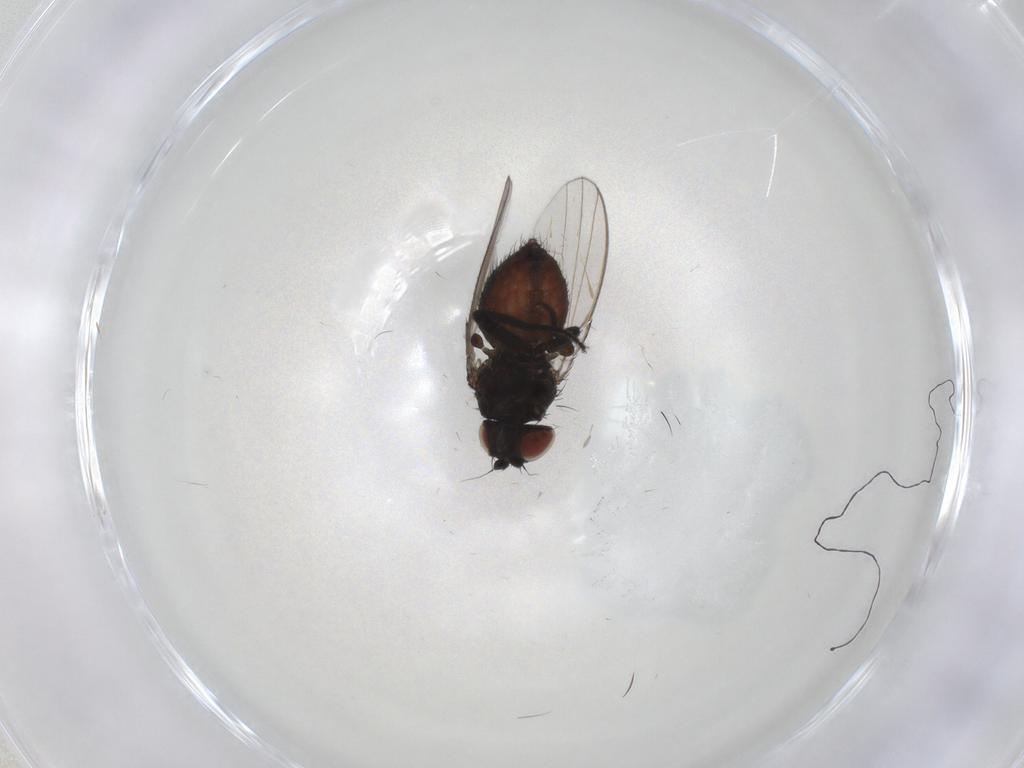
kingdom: Animalia
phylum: Arthropoda
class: Insecta
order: Diptera
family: Milichiidae
